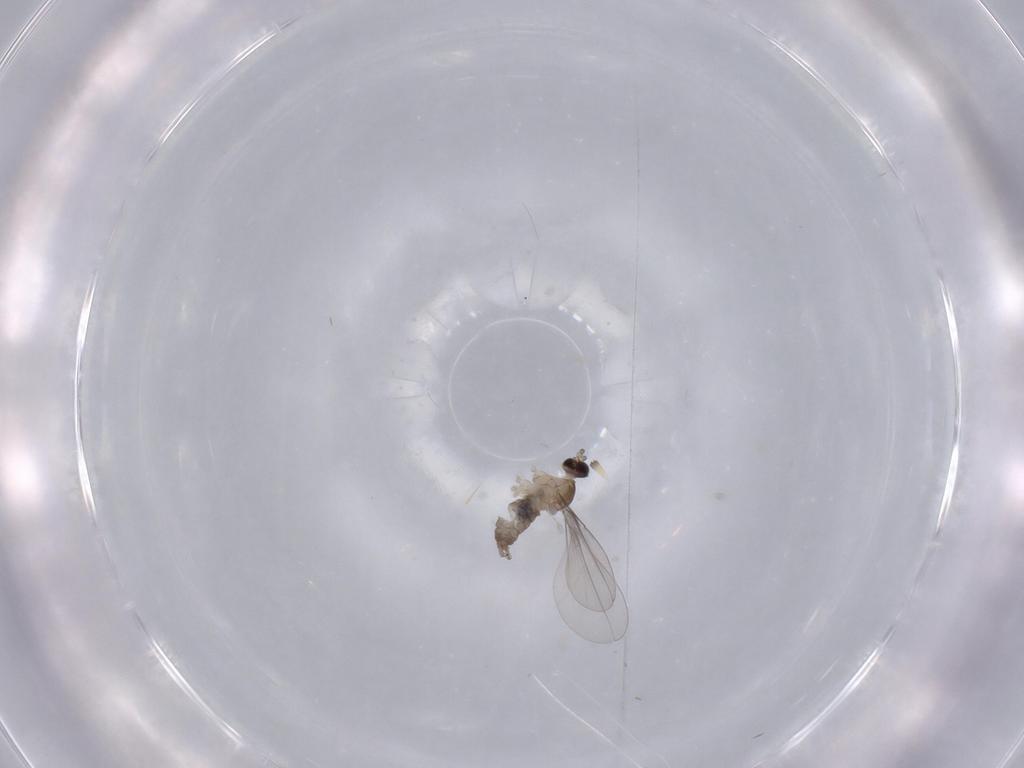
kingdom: Animalia
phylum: Arthropoda
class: Insecta
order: Diptera
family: Cecidomyiidae
